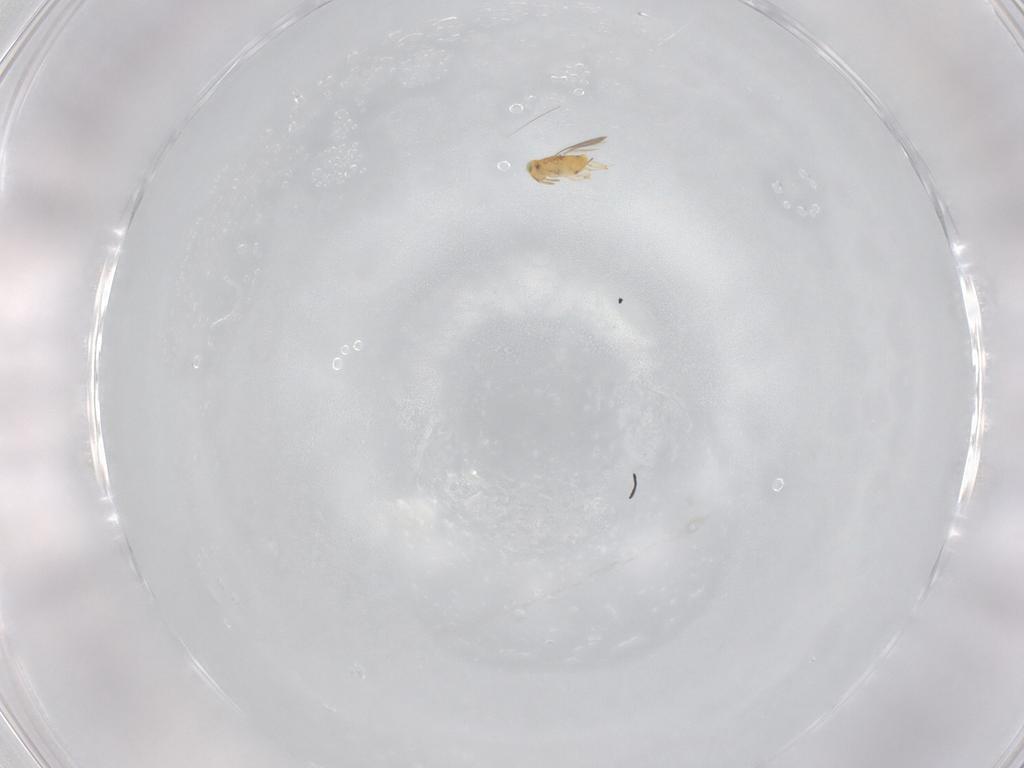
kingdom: Animalia
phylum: Arthropoda
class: Insecta
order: Hymenoptera
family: Aphelinidae
